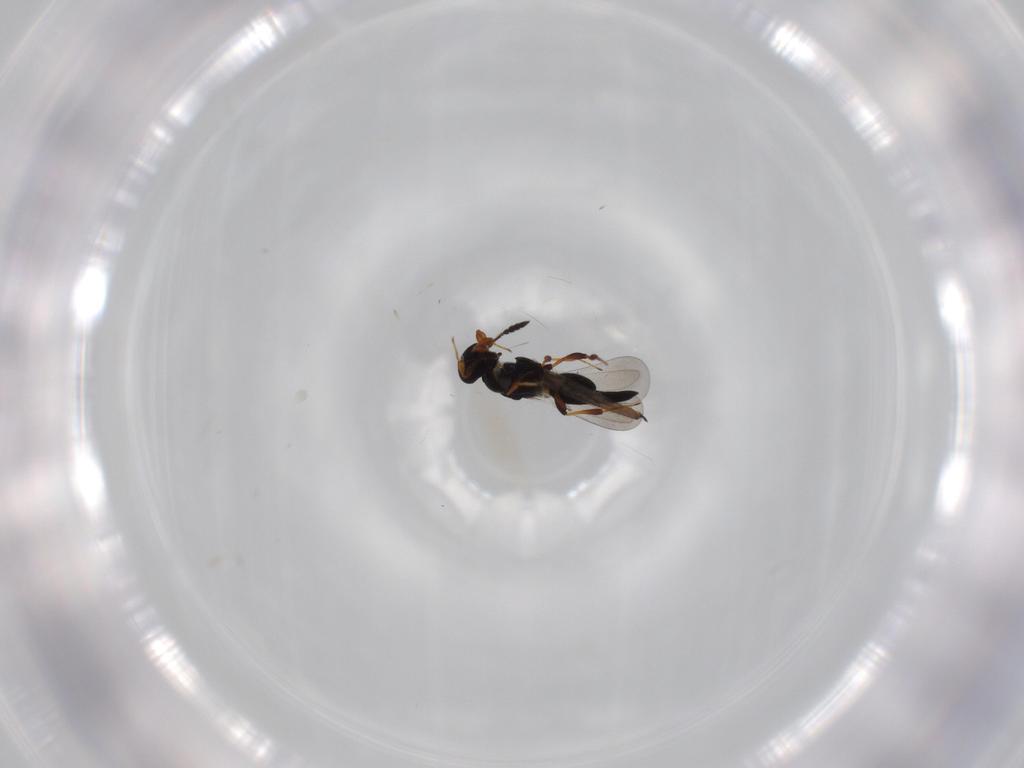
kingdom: Animalia
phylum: Arthropoda
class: Insecta
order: Hymenoptera
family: Platygastridae
